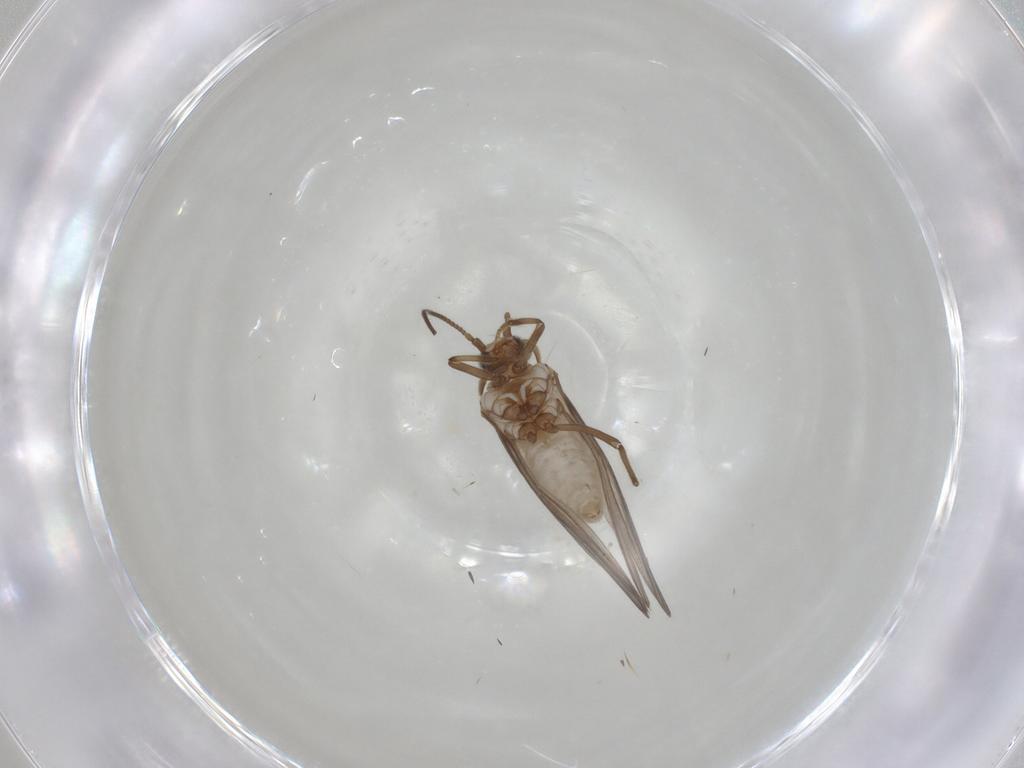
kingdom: Animalia
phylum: Arthropoda
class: Insecta
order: Neuroptera
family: Coniopterygidae
